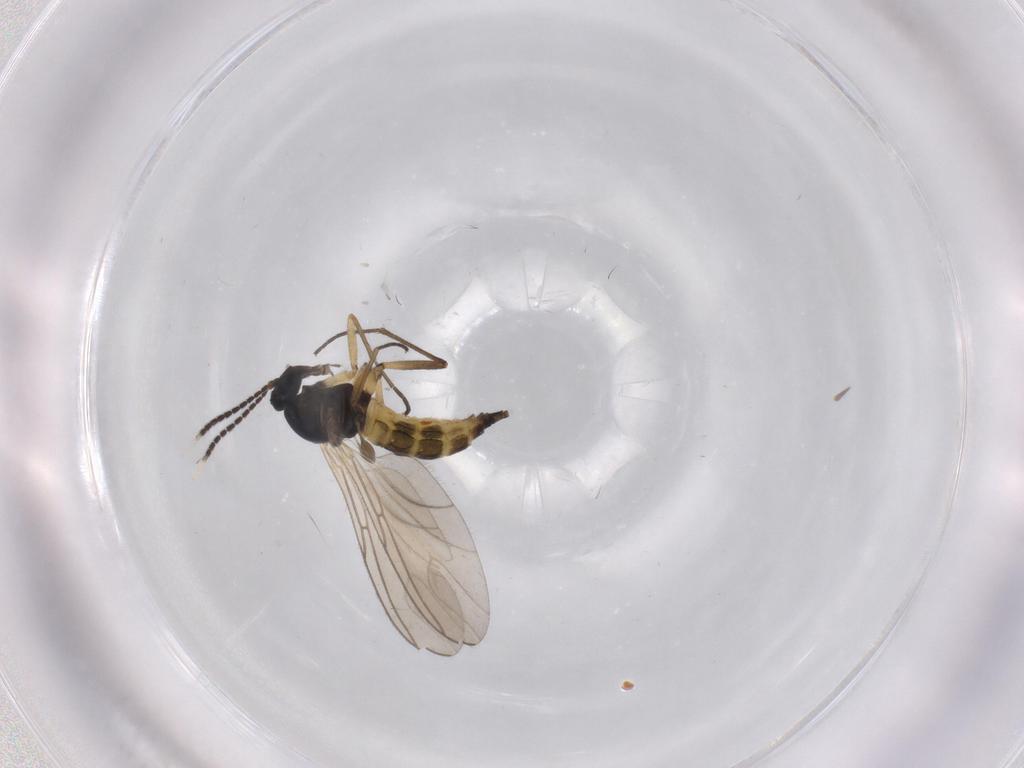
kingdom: Animalia
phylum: Arthropoda
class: Insecta
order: Diptera
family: Sciaridae
